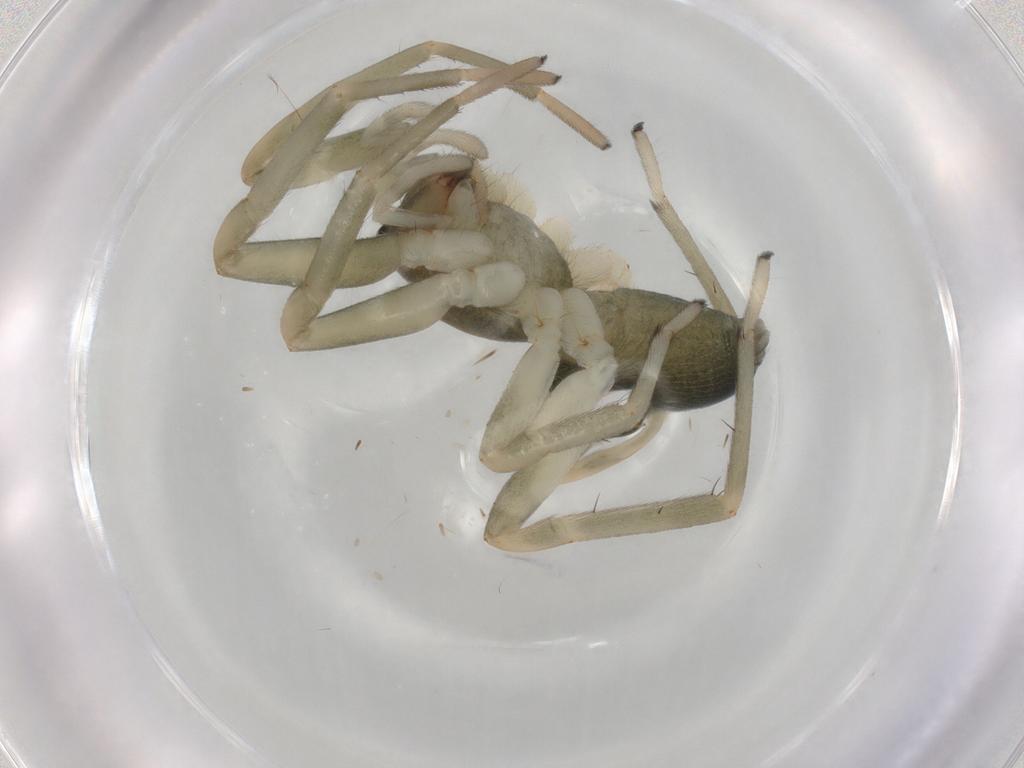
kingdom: Animalia
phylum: Arthropoda
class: Arachnida
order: Araneae
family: Trachelidae
